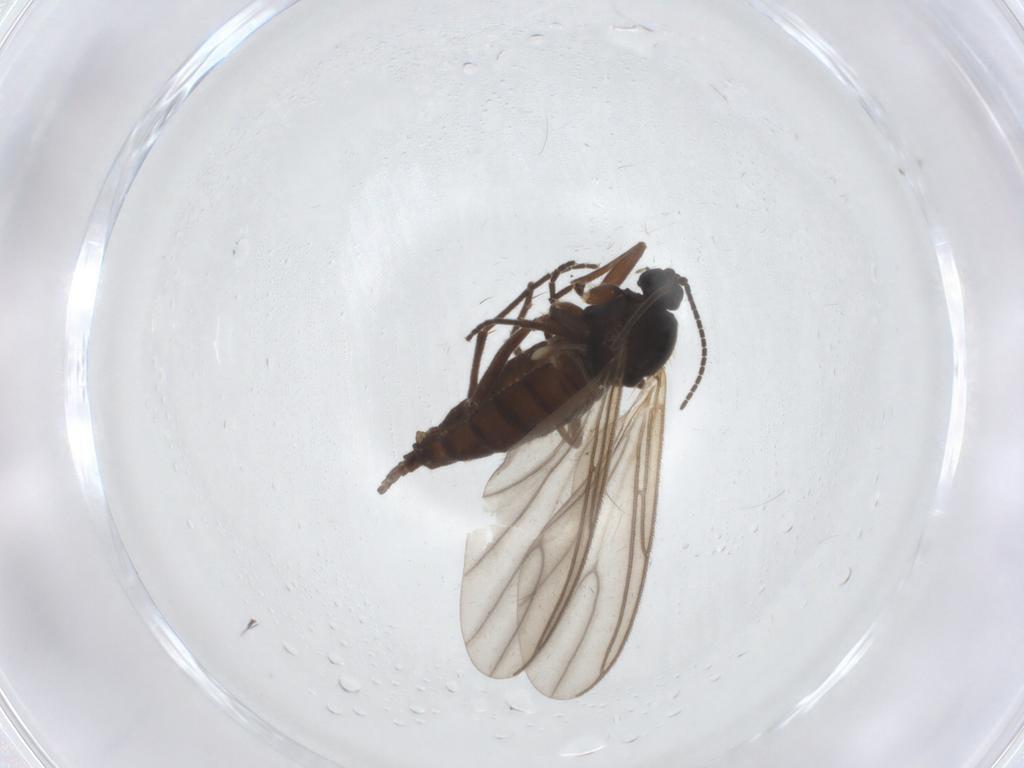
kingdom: Animalia
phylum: Arthropoda
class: Insecta
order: Diptera
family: Sciaridae
